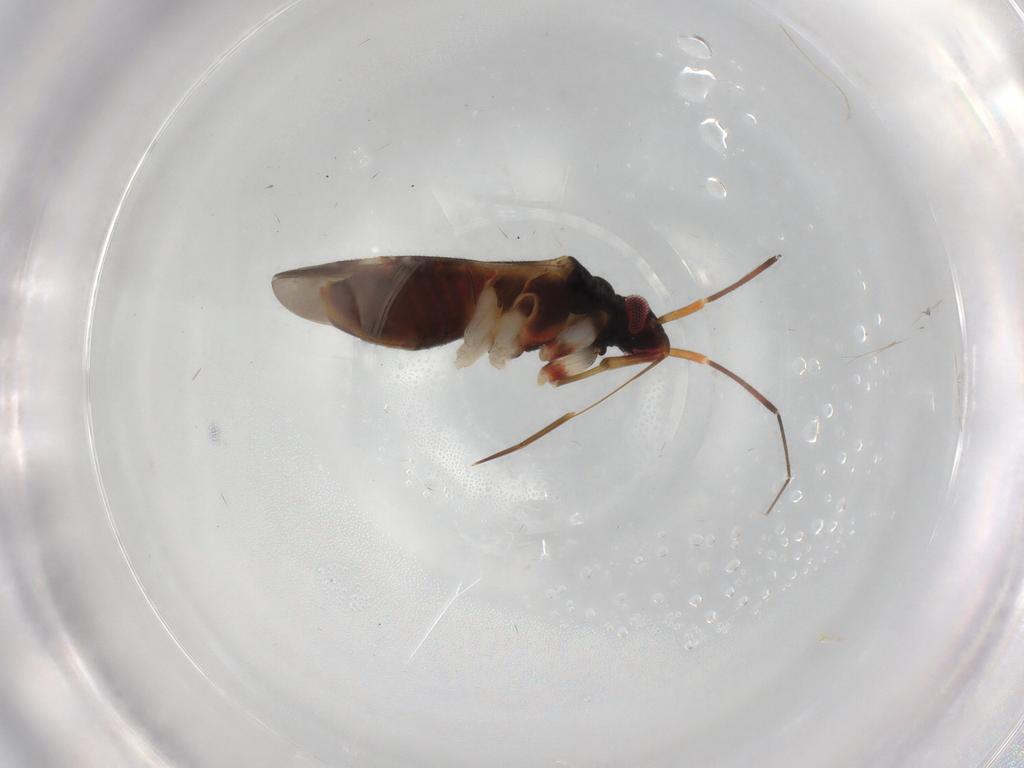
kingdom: Animalia
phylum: Arthropoda
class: Insecta
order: Hemiptera
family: Miridae
